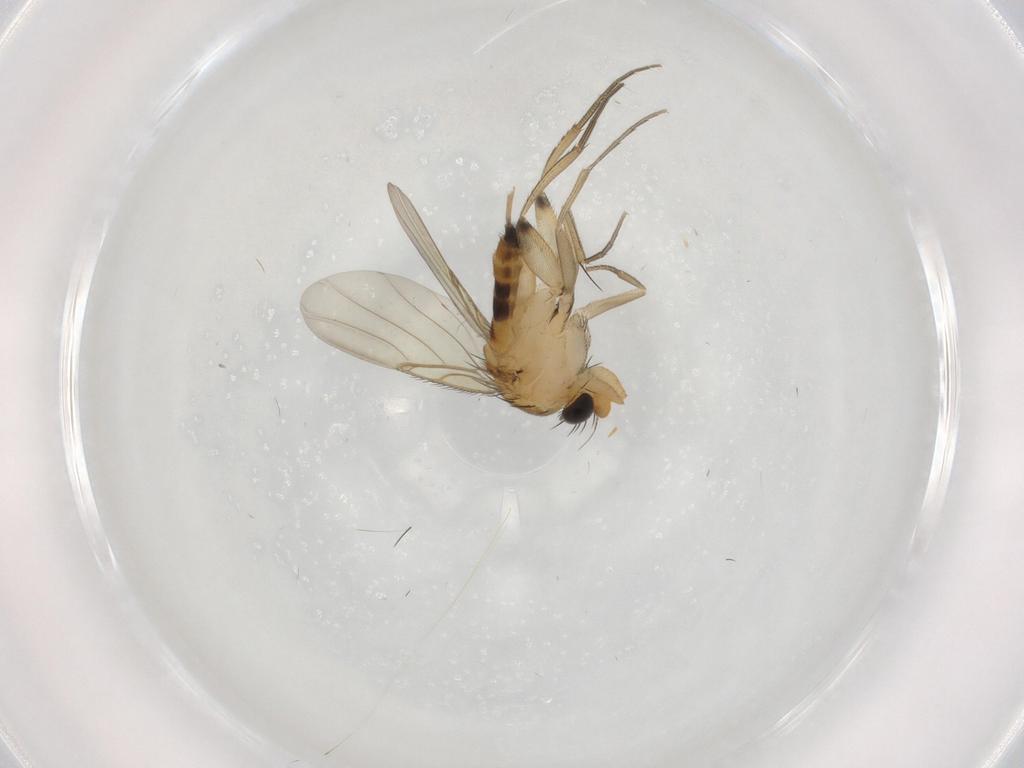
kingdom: Animalia
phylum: Arthropoda
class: Insecta
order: Diptera
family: Phoridae
